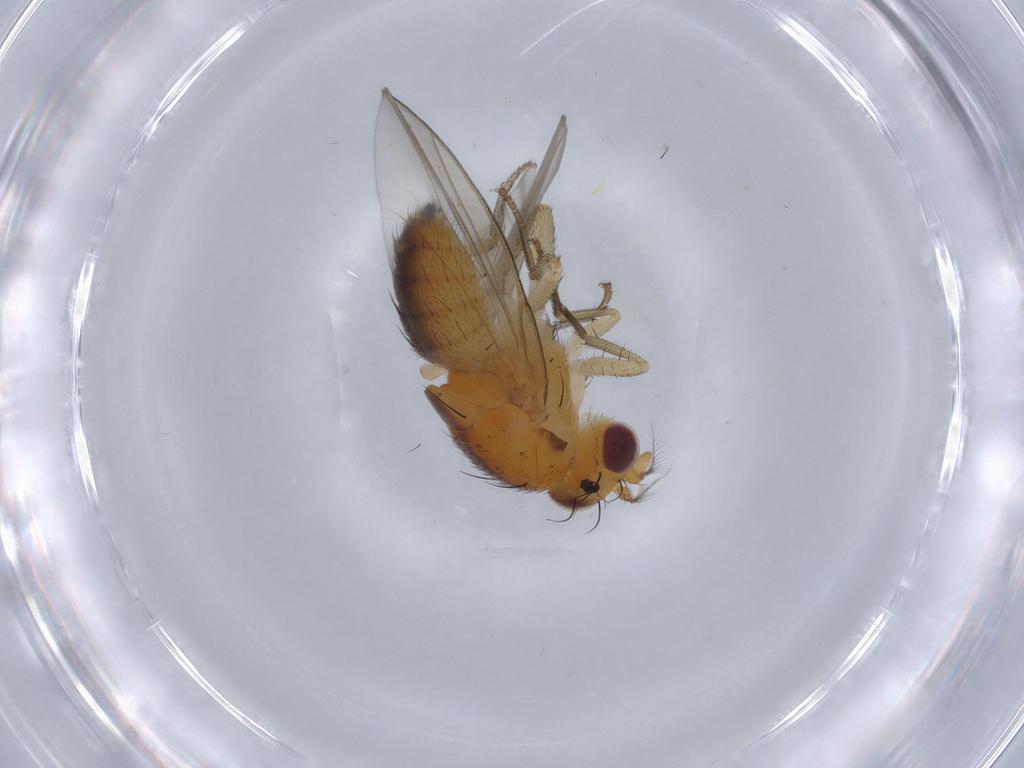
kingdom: Animalia
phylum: Arthropoda
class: Insecta
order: Diptera
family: Lauxaniidae
